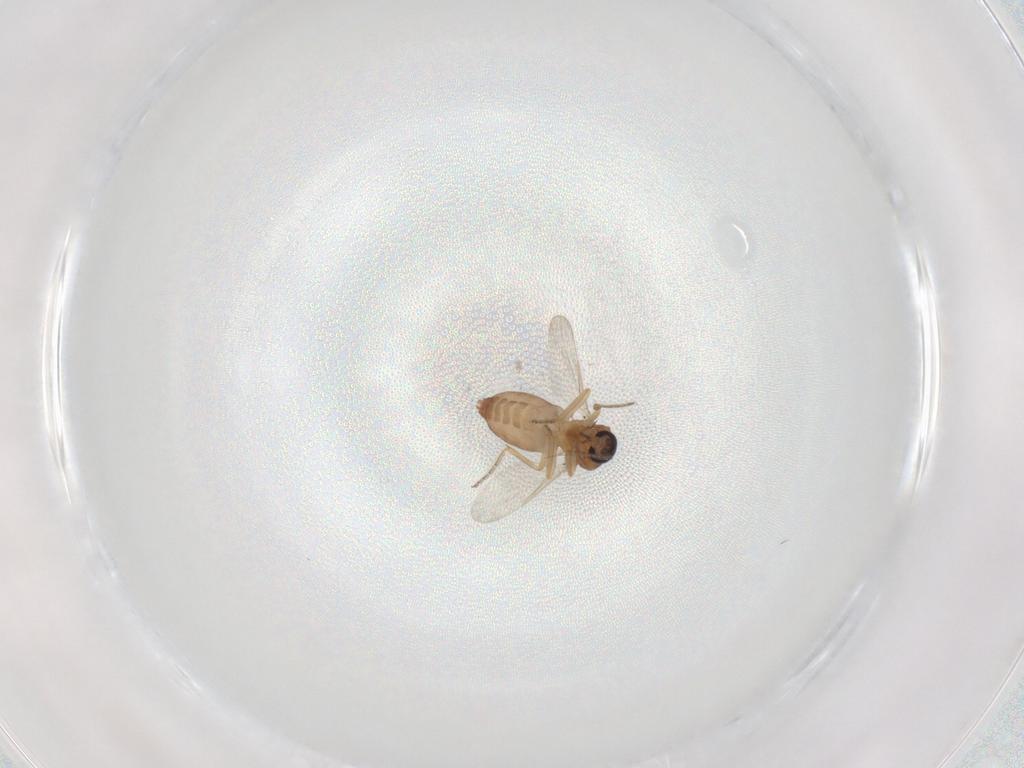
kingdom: Animalia
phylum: Arthropoda
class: Insecta
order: Diptera
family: Ceratopogonidae
